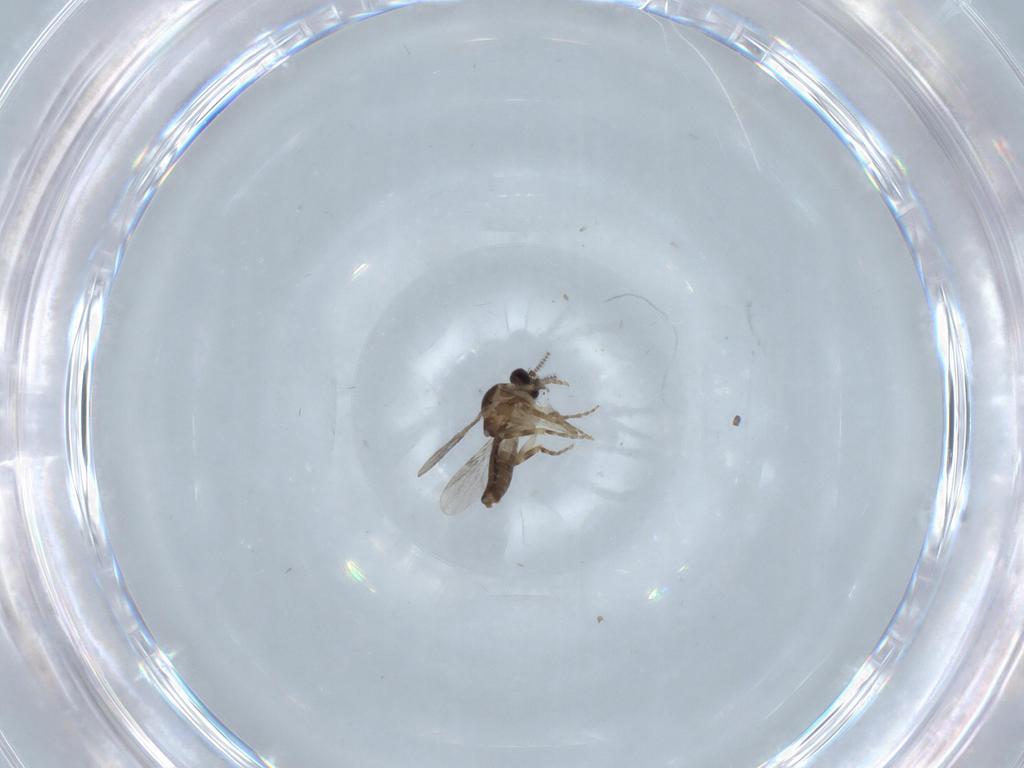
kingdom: Animalia
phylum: Arthropoda
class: Insecta
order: Diptera
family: Ceratopogonidae
